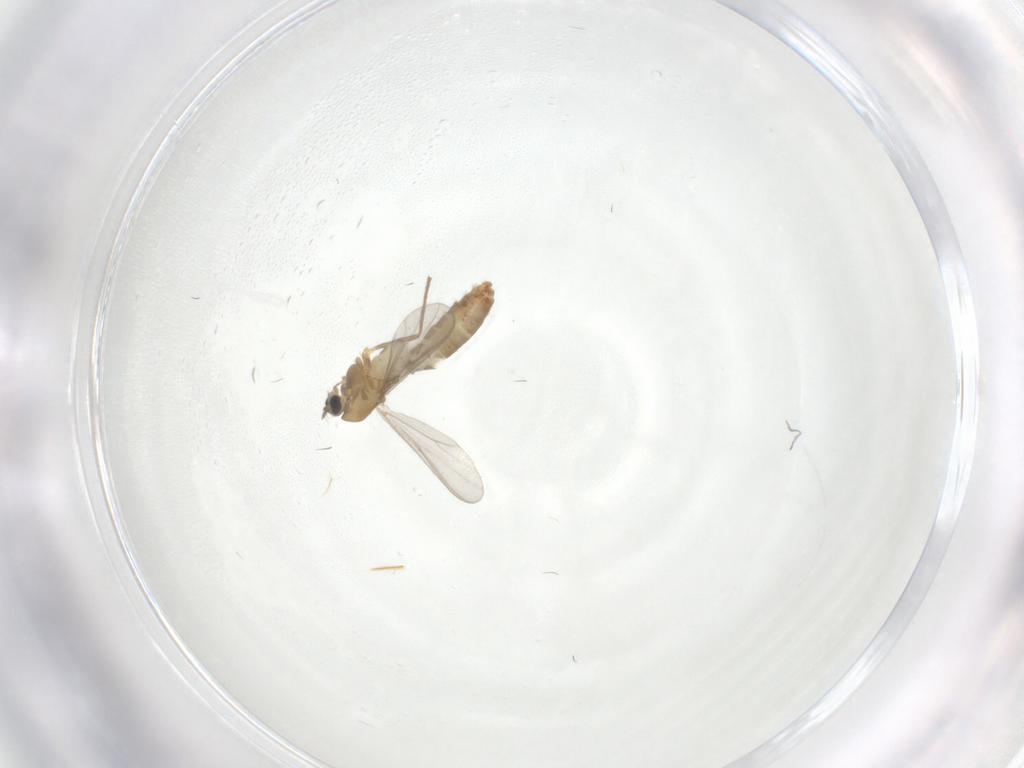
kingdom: Animalia
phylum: Arthropoda
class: Insecta
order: Diptera
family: Chironomidae
